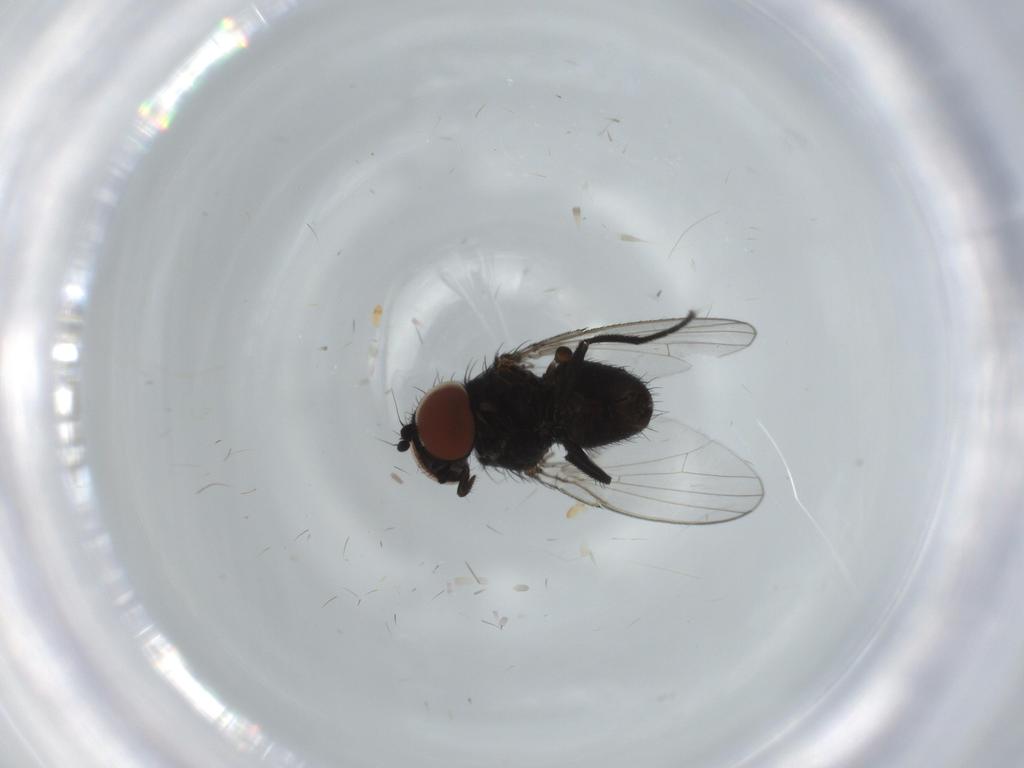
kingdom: Animalia
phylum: Arthropoda
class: Insecta
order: Diptera
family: Milichiidae
